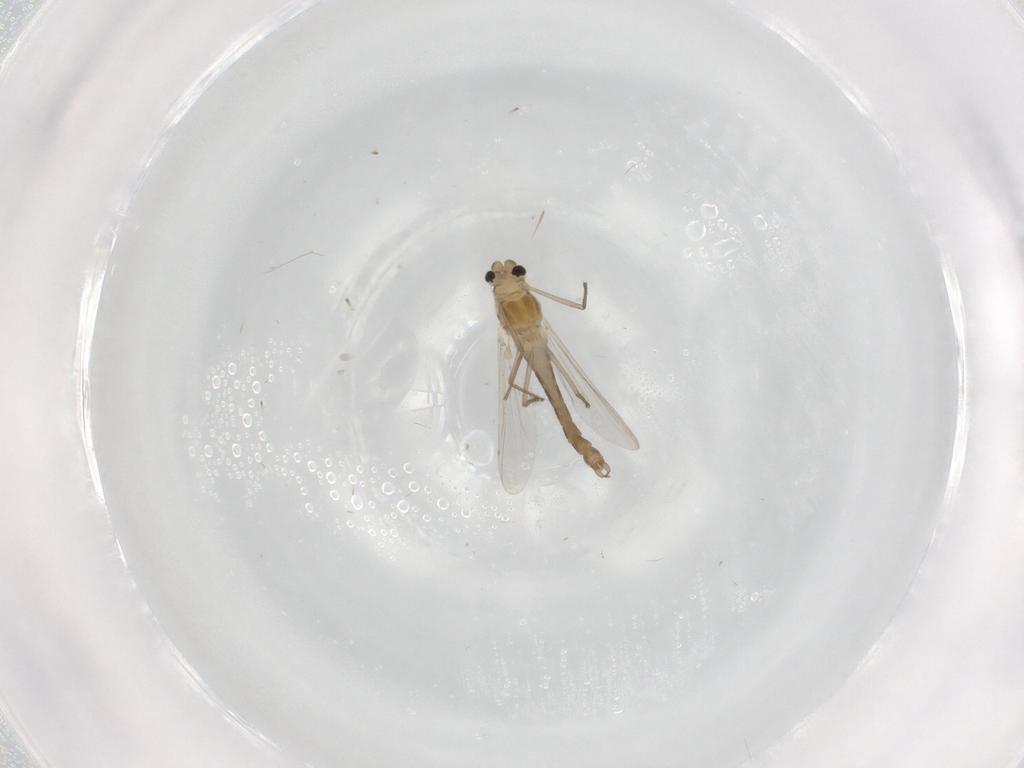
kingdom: Animalia
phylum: Arthropoda
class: Insecta
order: Diptera
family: Chironomidae
